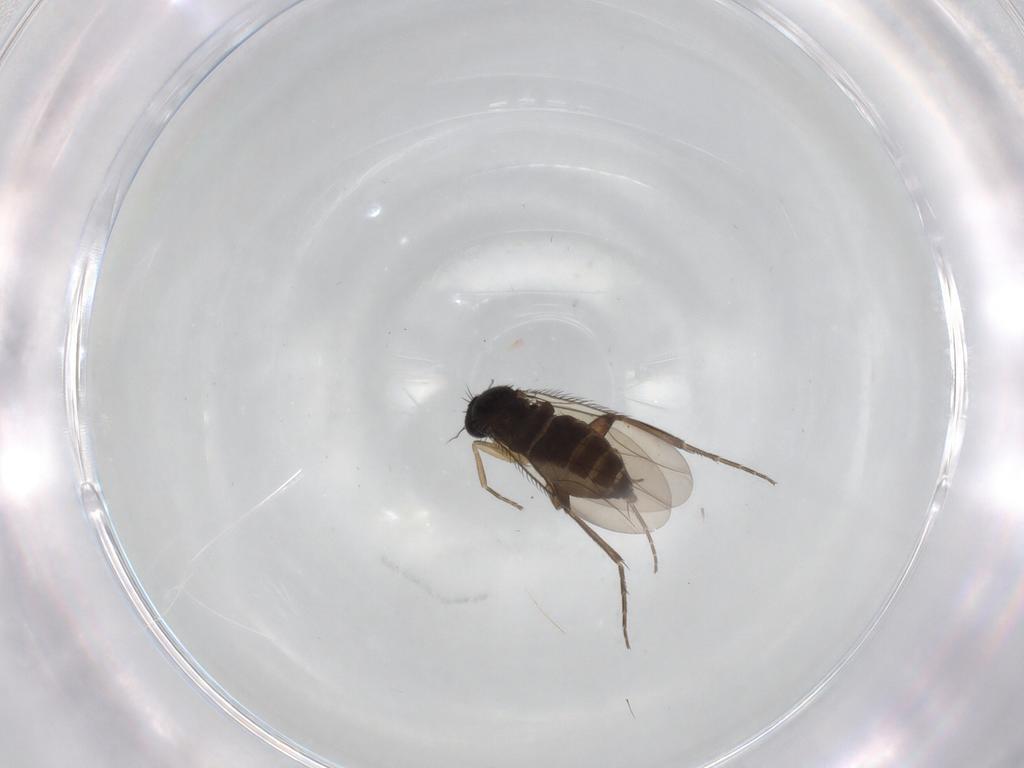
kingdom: Animalia
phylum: Arthropoda
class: Insecta
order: Diptera
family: Phoridae
